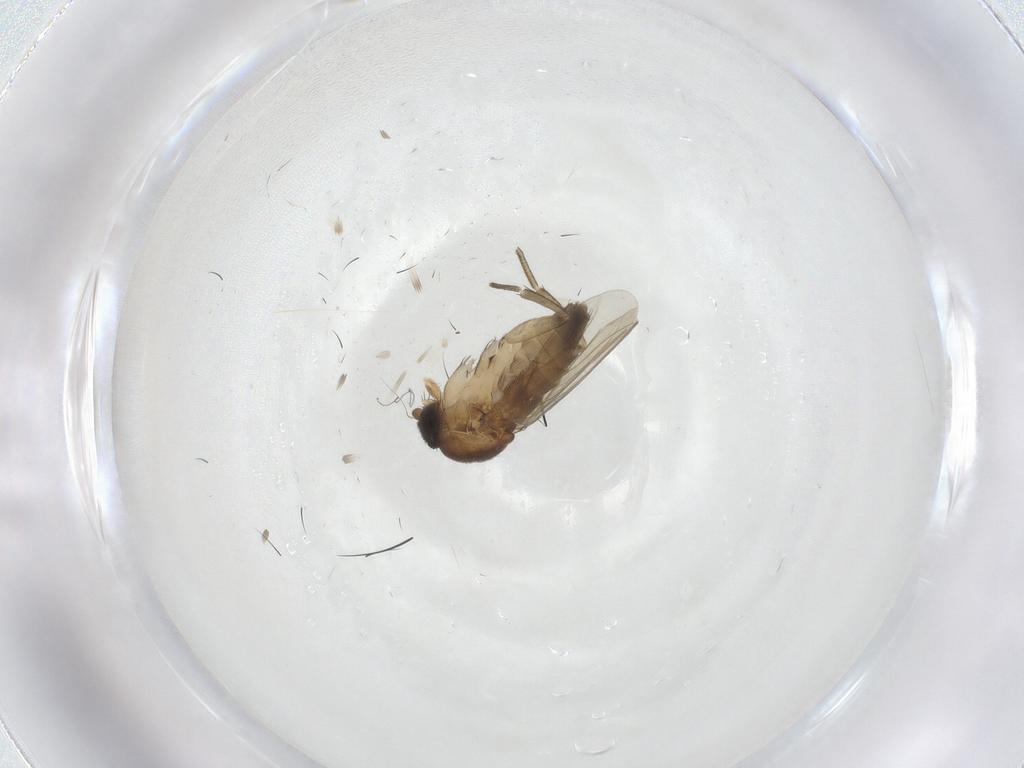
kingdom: Animalia
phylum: Arthropoda
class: Insecta
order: Diptera
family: Phoridae
